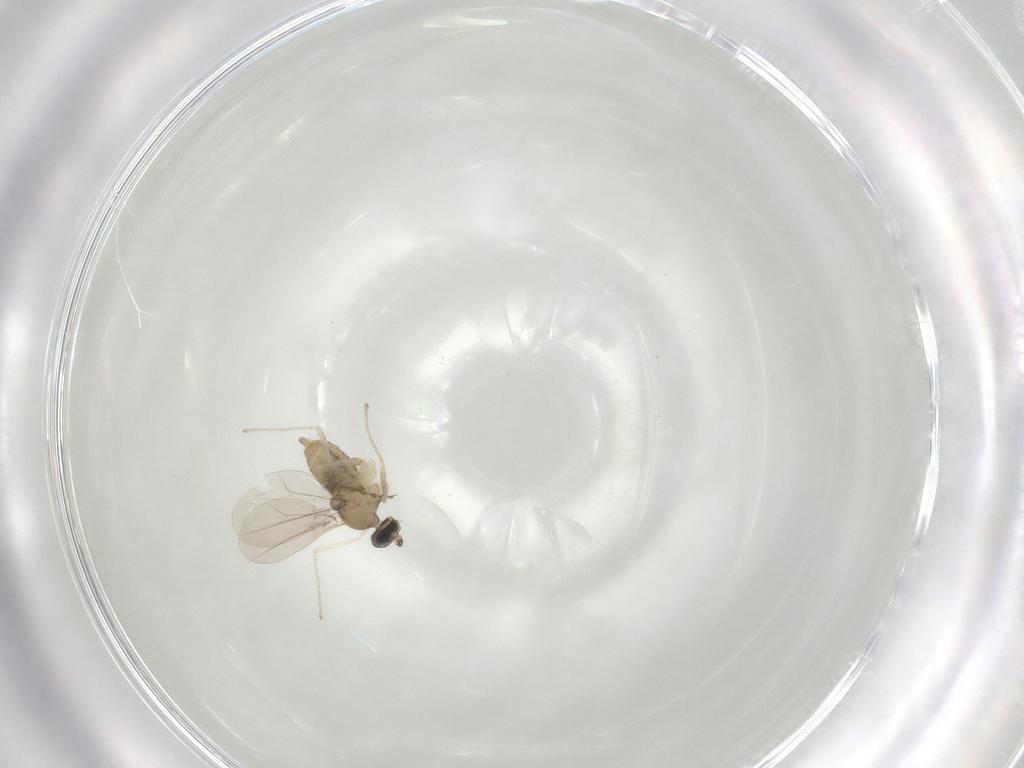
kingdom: Animalia
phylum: Arthropoda
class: Insecta
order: Diptera
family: Cecidomyiidae
